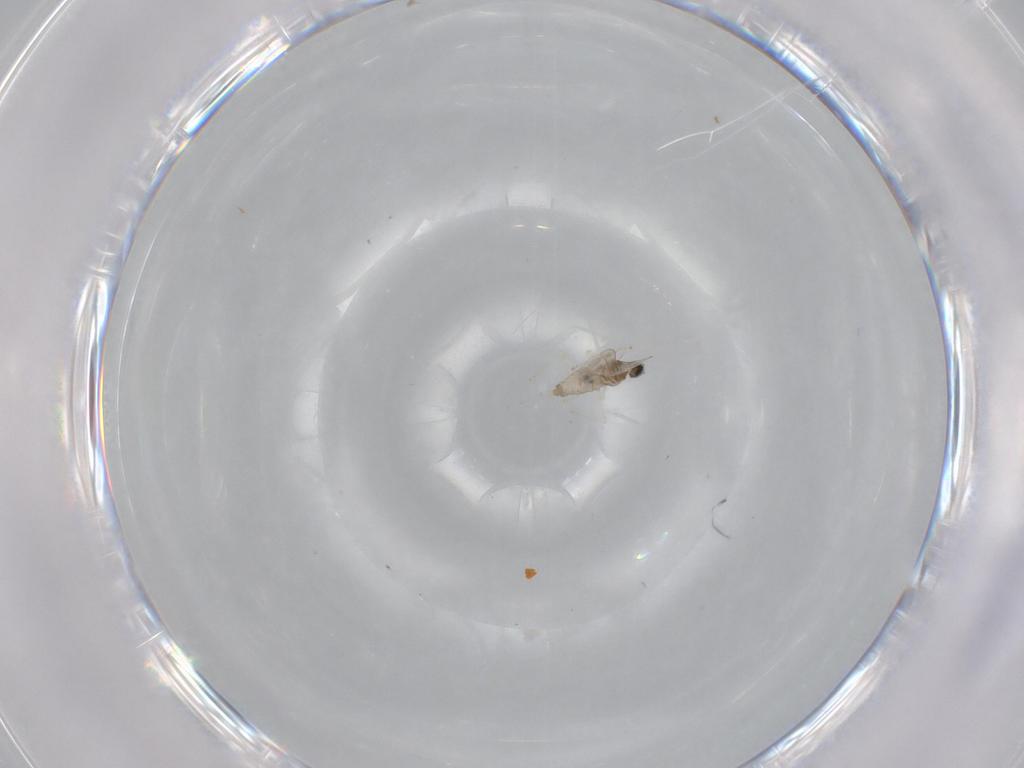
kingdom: Animalia
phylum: Arthropoda
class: Insecta
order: Diptera
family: Cecidomyiidae
